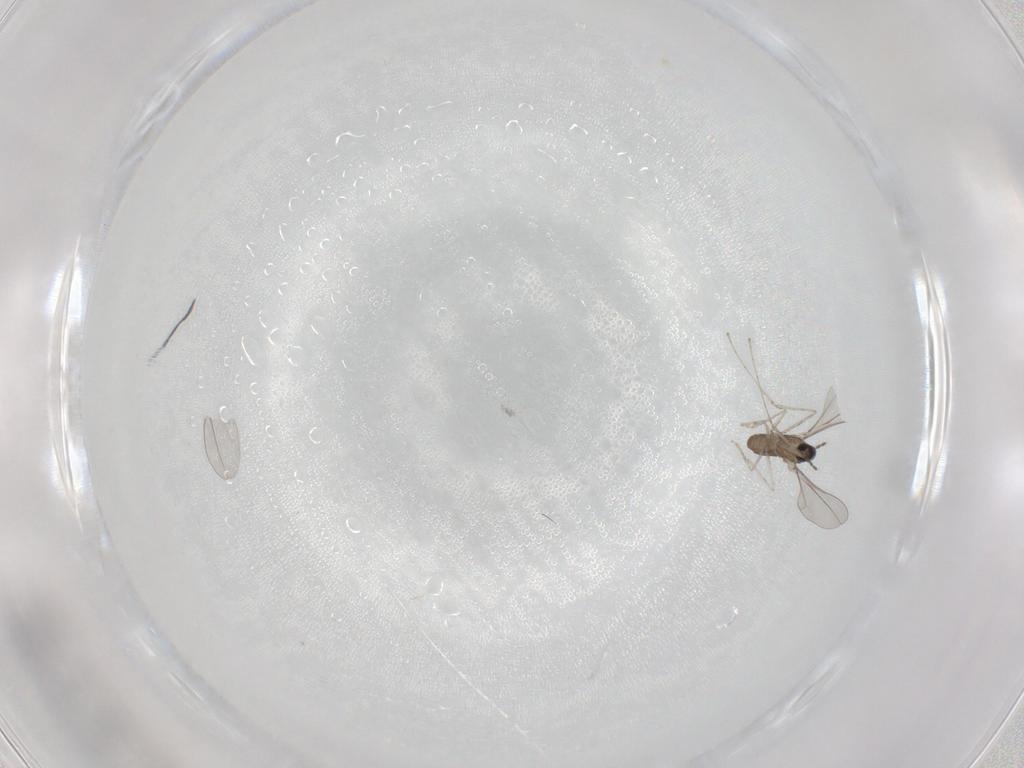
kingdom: Animalia
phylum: Arthropoda
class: Insecta
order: Diptera
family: Cecidomyiidae
